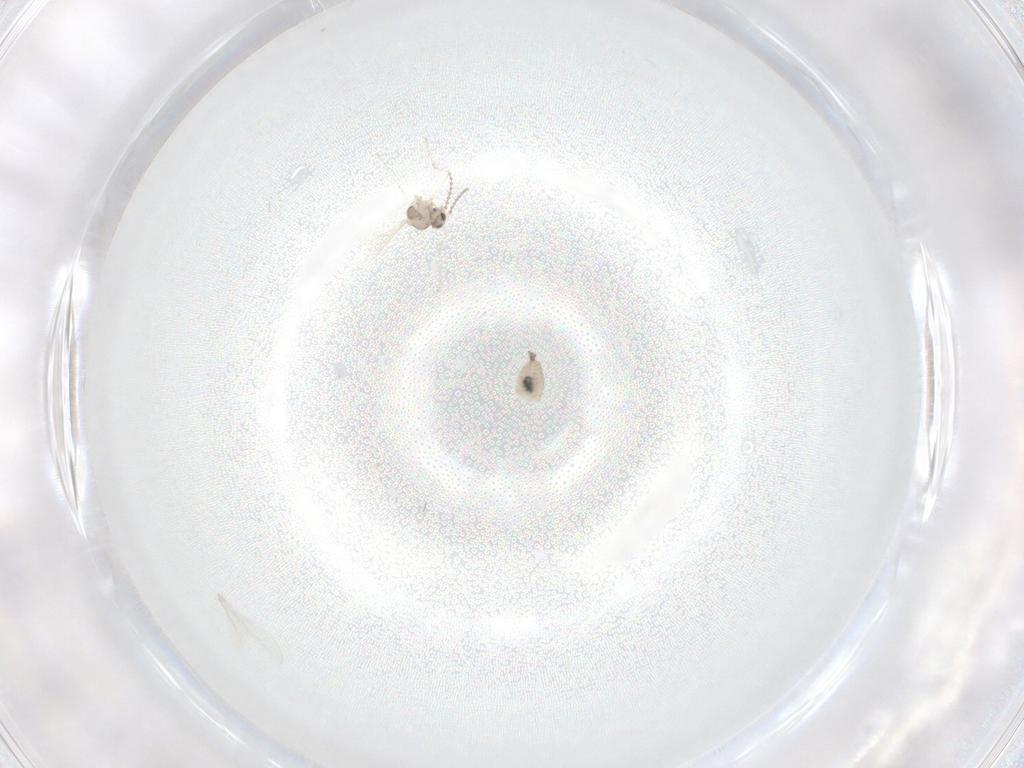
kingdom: Animalia
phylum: Arthropoda
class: Insecta
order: Diptera
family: Cecidomyiidae
